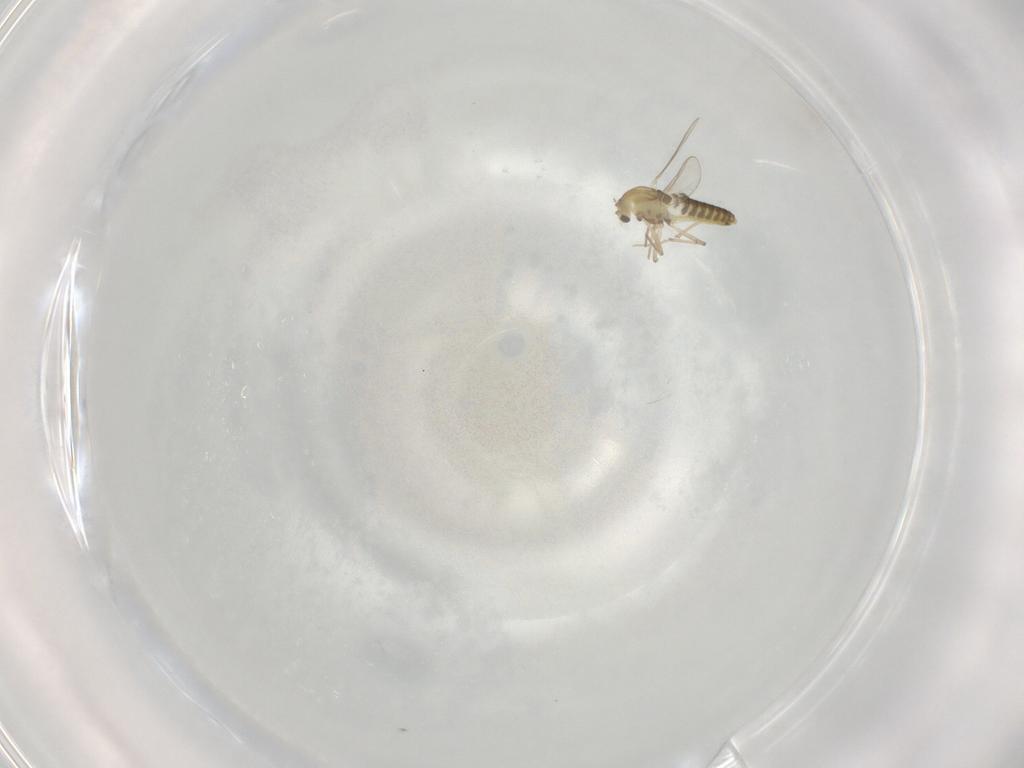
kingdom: Animalia
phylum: Arthropoda
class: Insecta
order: Diptera
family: Chironomidae
